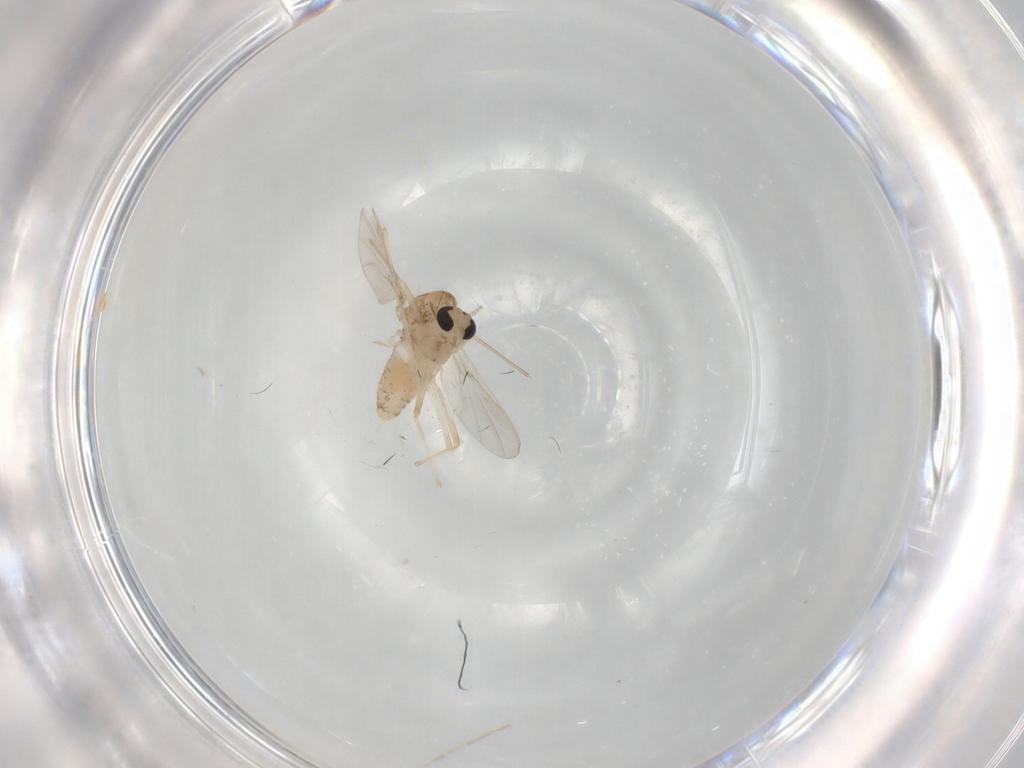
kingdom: Animalia
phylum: Arthropoda
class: Insecta
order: Diptera
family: Chironomidae
